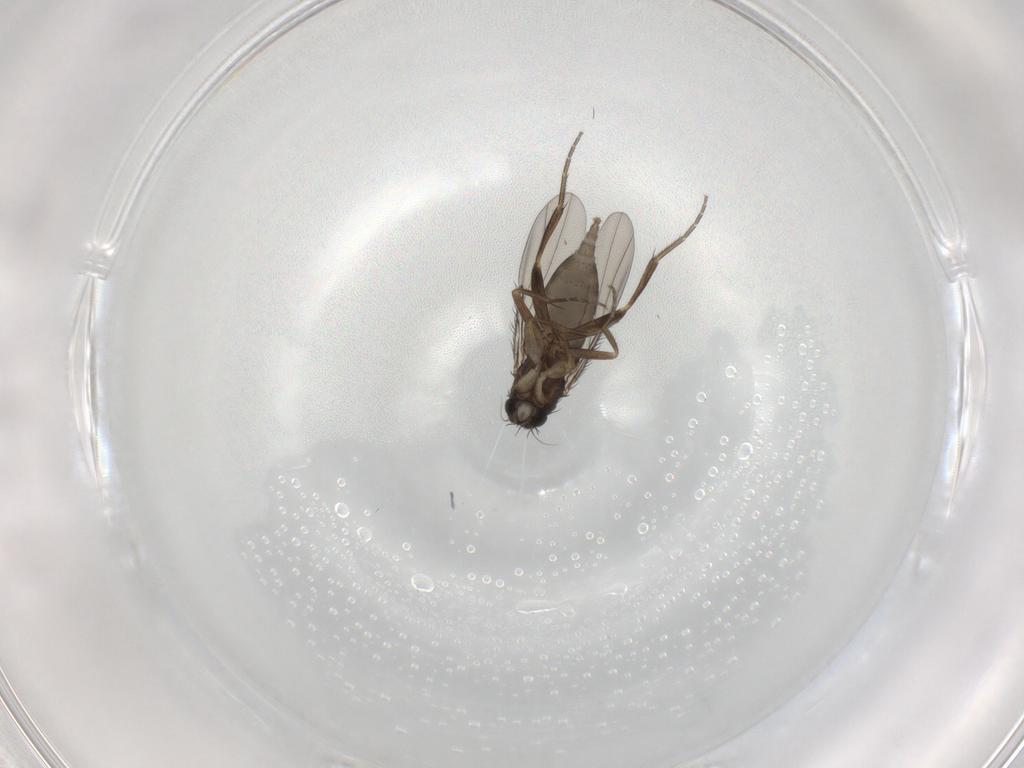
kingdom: Animalia
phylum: Arthropoda
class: Insecta
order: Diptera
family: Phoridae
